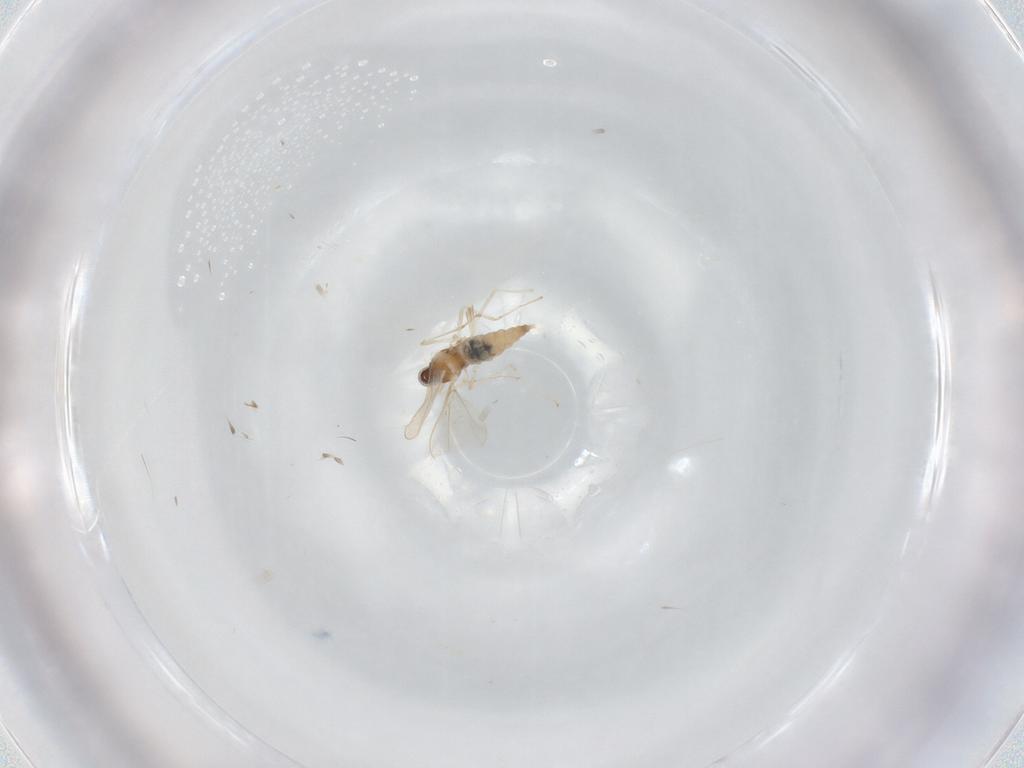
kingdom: Animalia
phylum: Arthropoda
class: Insecta
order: Diptera
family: Cecidomyiidae
